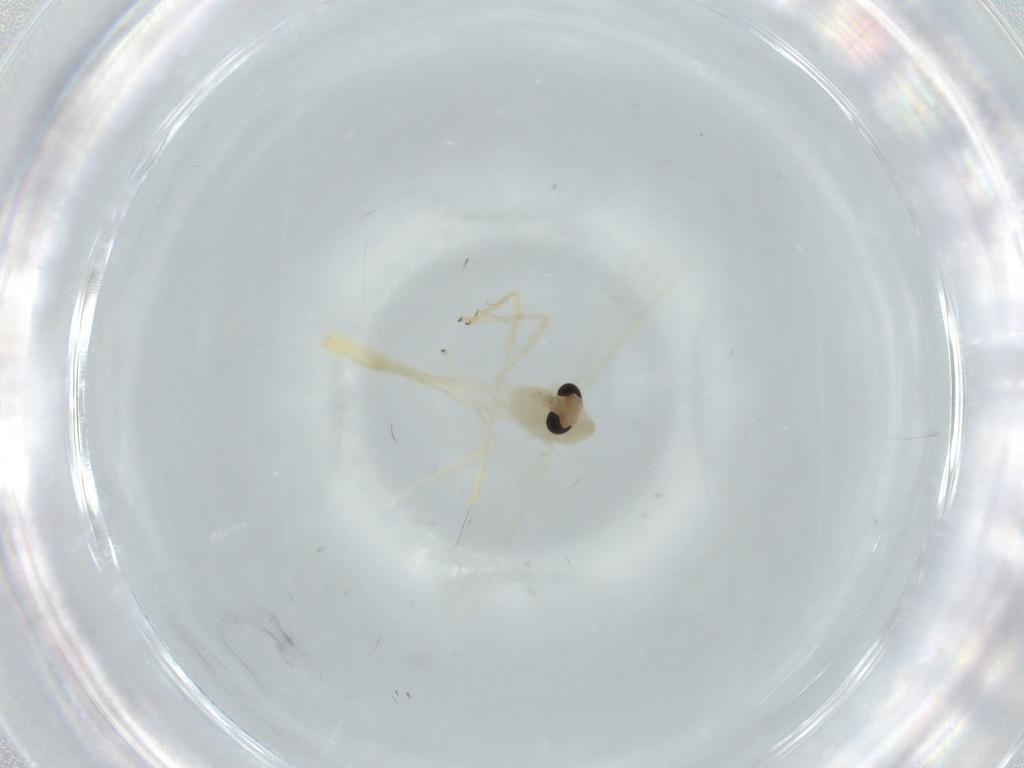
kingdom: Animalia
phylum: Arthropoda
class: Insecta
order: Diptera
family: Chironomidae
